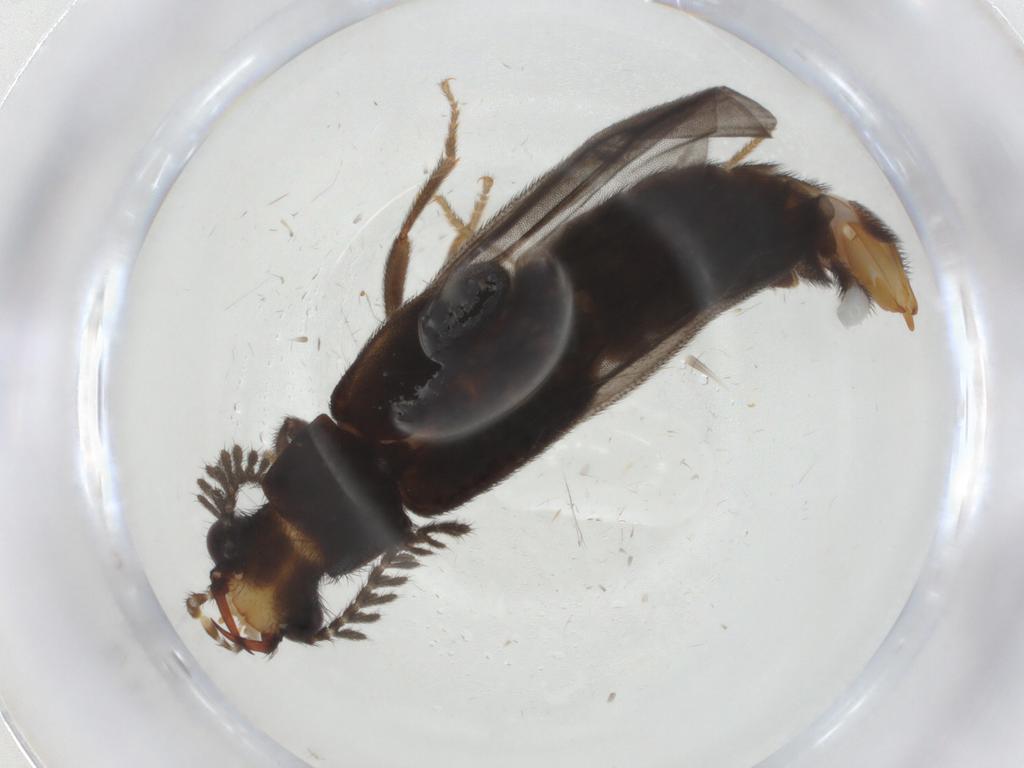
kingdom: Animalia
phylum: Arthropoda
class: Insecta
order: Coleoptera
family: Phengodidae
